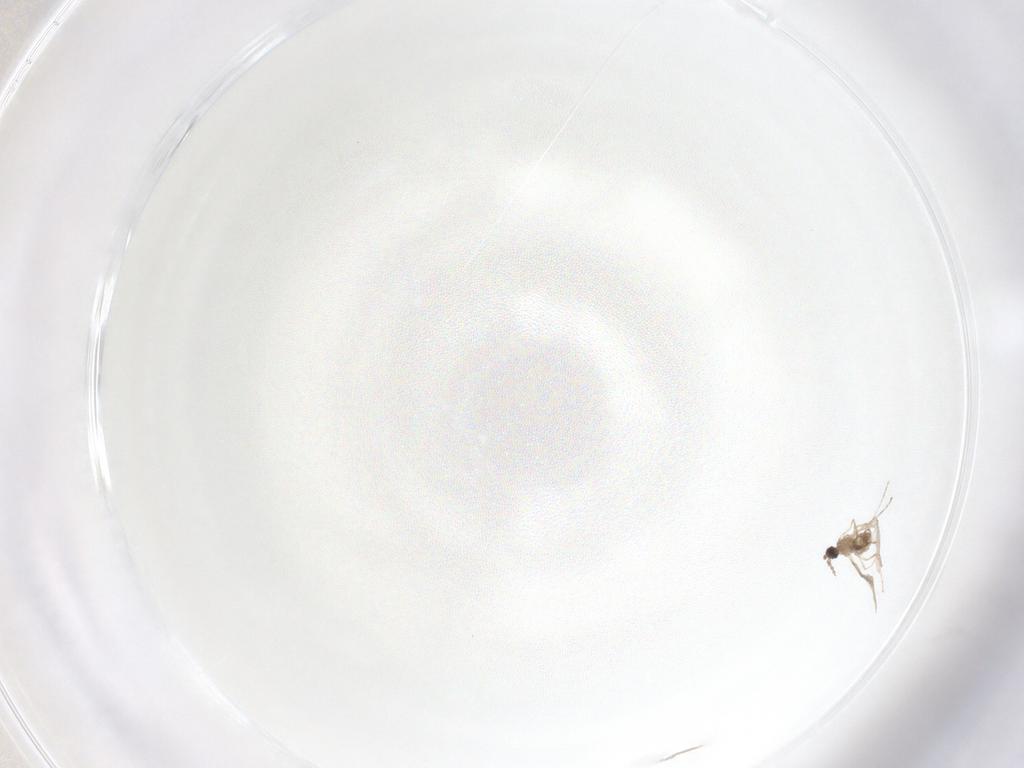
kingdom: Animalia
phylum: Arthropoda
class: Insecta
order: Diptera
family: Cecidomyiidae
